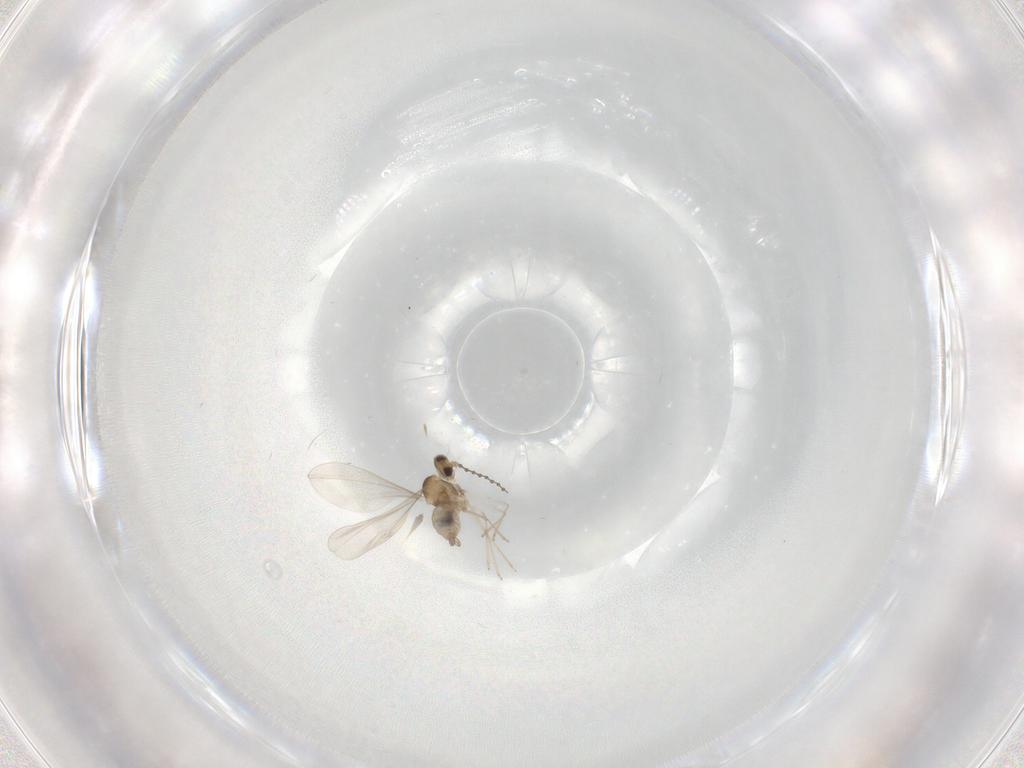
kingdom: Animalia
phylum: Arthropoda
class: Insecta
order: Diptera
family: Cecidomyiidae
